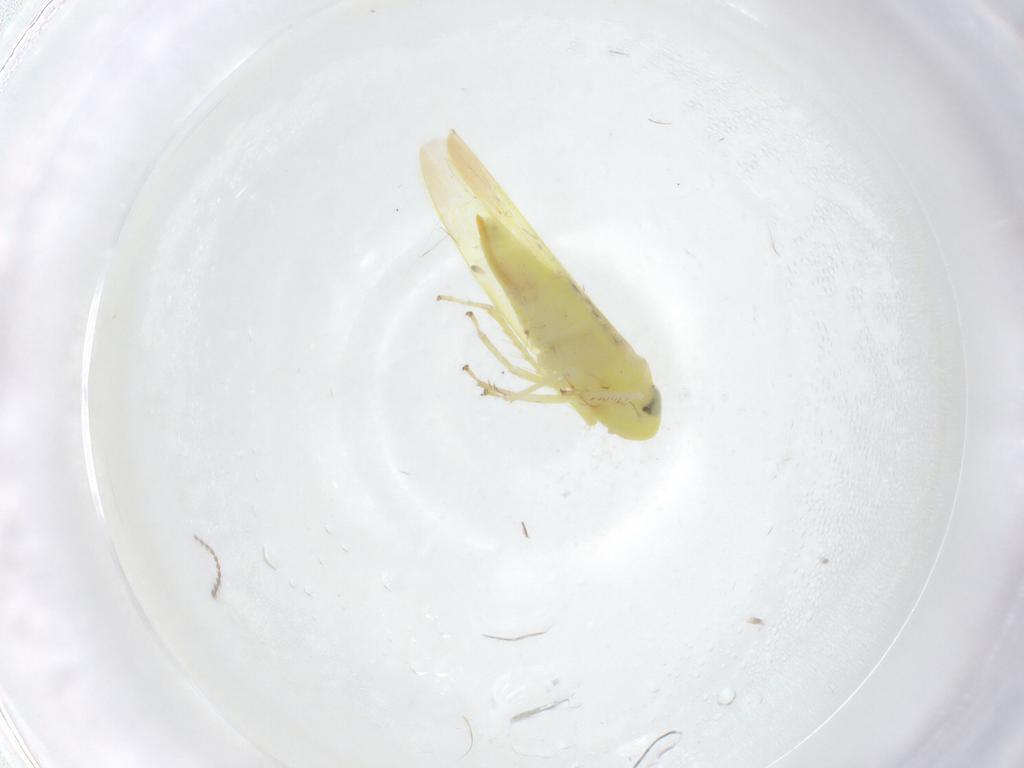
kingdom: Animalia
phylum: Arthropoda
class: Insecta
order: Hemiptera
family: Cicadellidae
